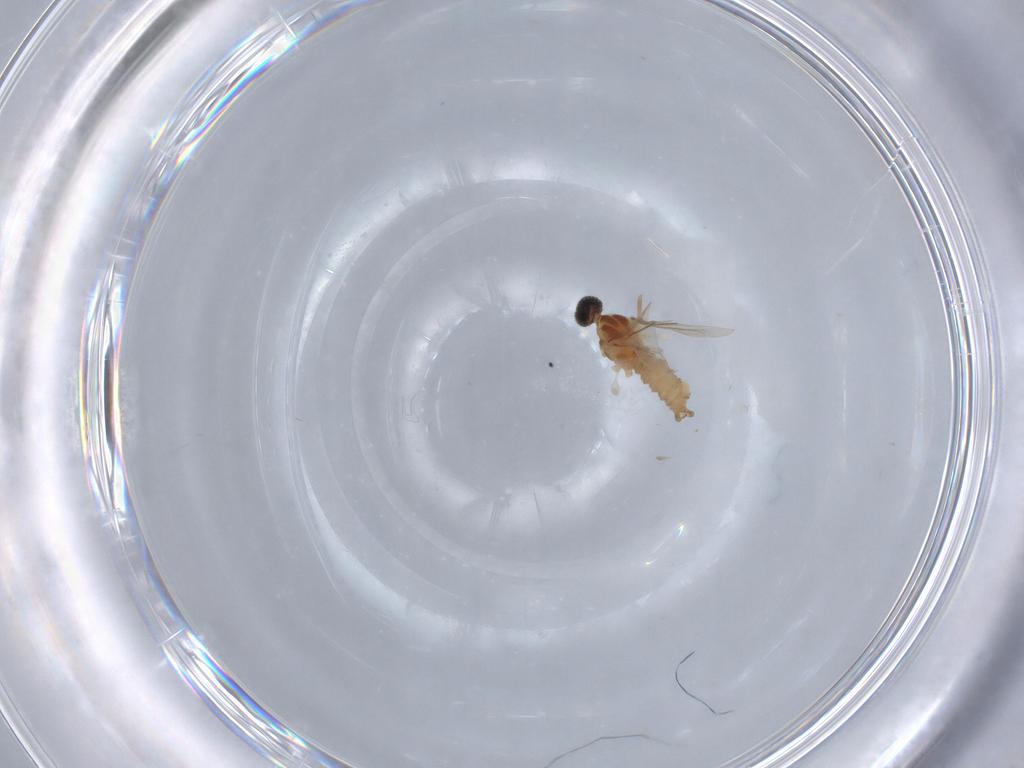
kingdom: Animalia
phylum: Arthropoda
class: Insecta
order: Diptera
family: Cecidomyiidae
